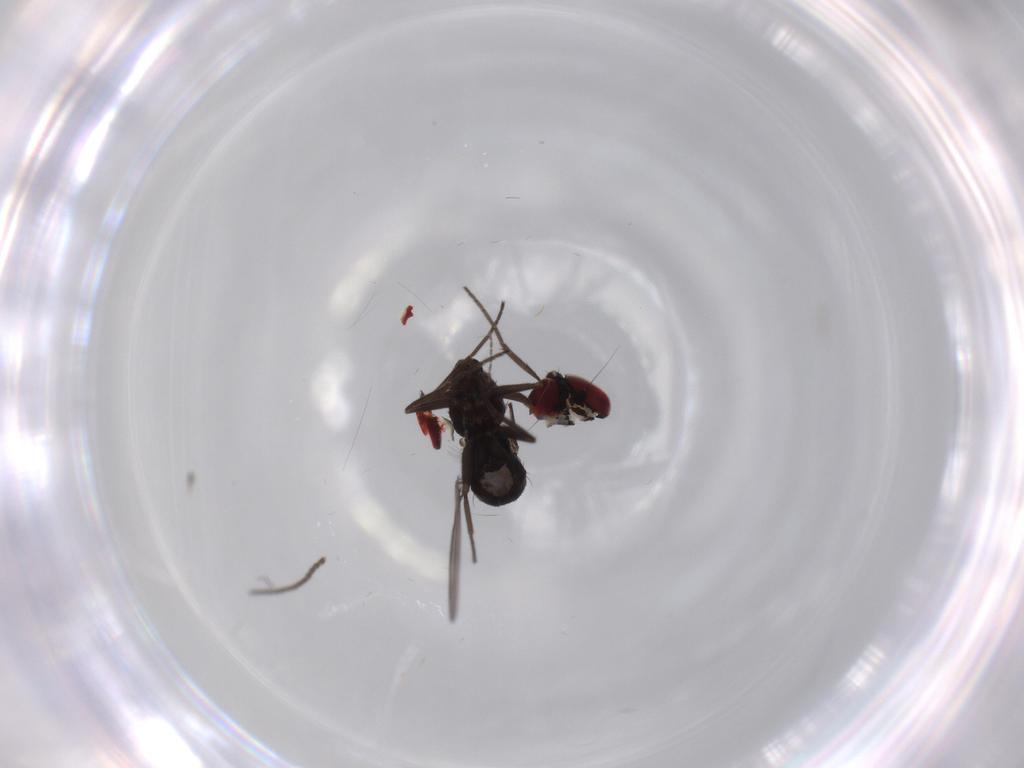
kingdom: Animalia
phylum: Arthropoda
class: Insecta
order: Diptera
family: Sciaridae
